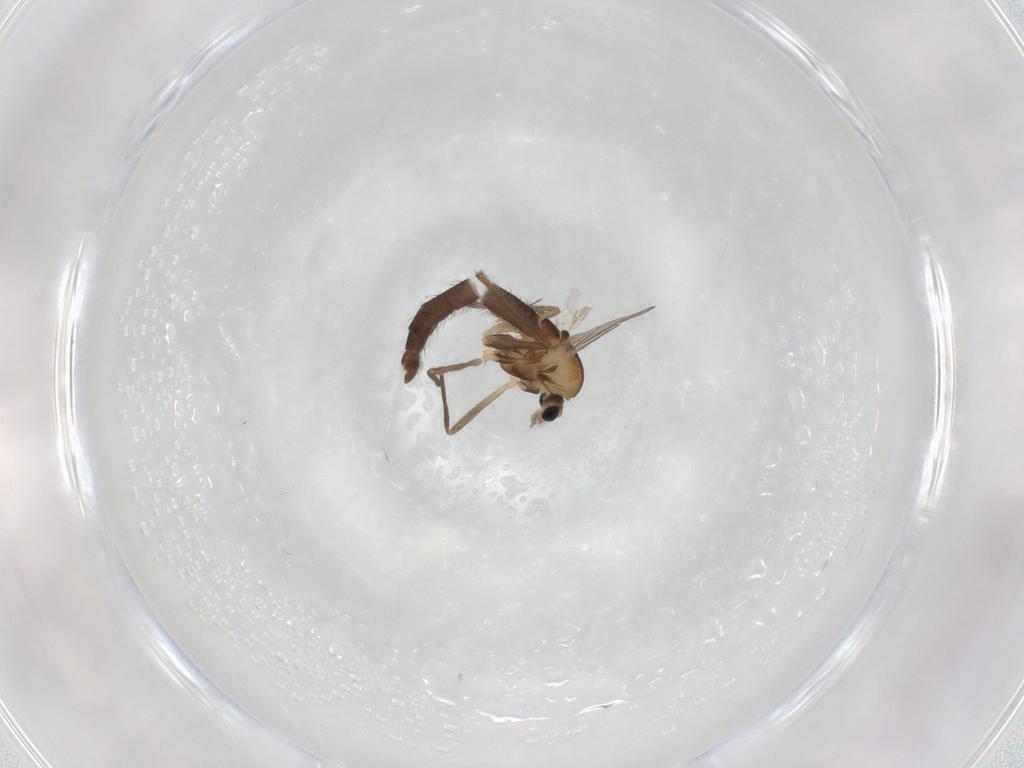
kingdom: Animalia
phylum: Arthropoda
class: Insecta
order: Diptera
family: Chironomidae
